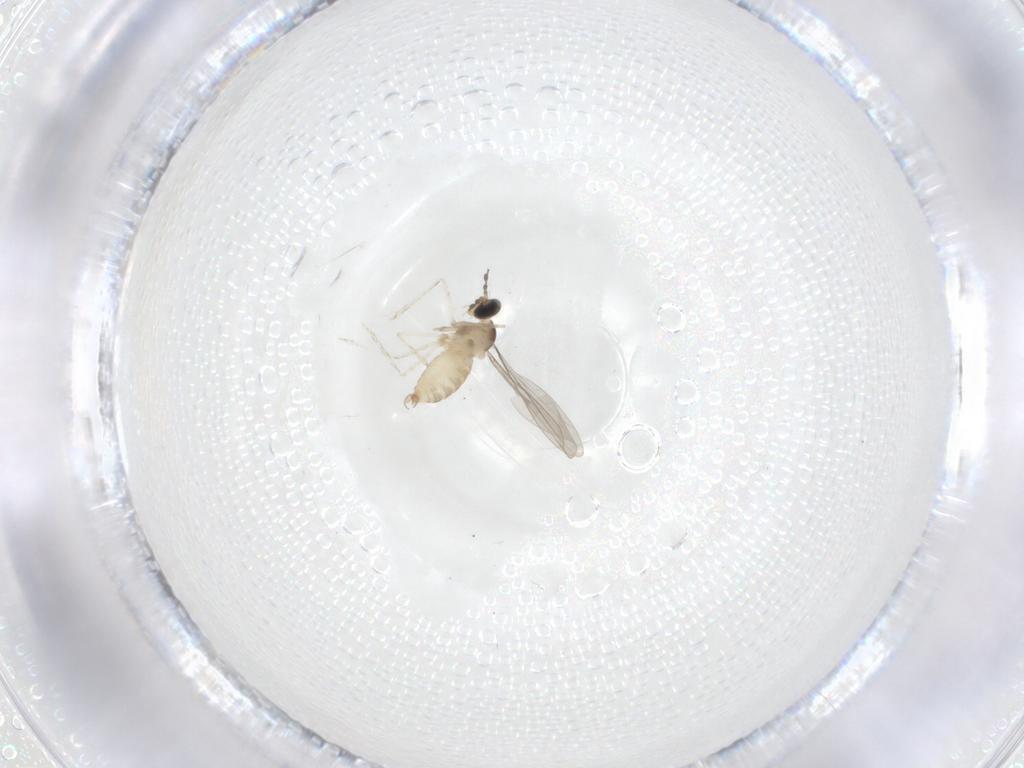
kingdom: Animalia
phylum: Arthropoda
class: Insecta
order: Diptera
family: Cecidomyiidae
